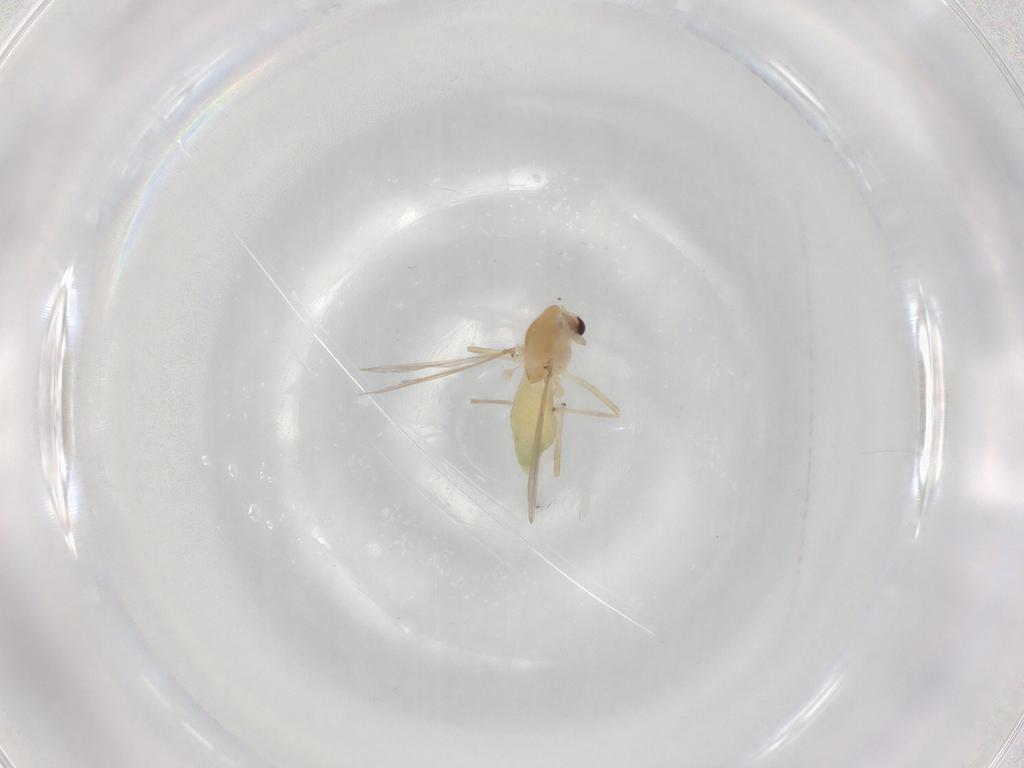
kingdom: Animalia
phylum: Arthropoda
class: Insecta
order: Diptera
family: Chironomidae
